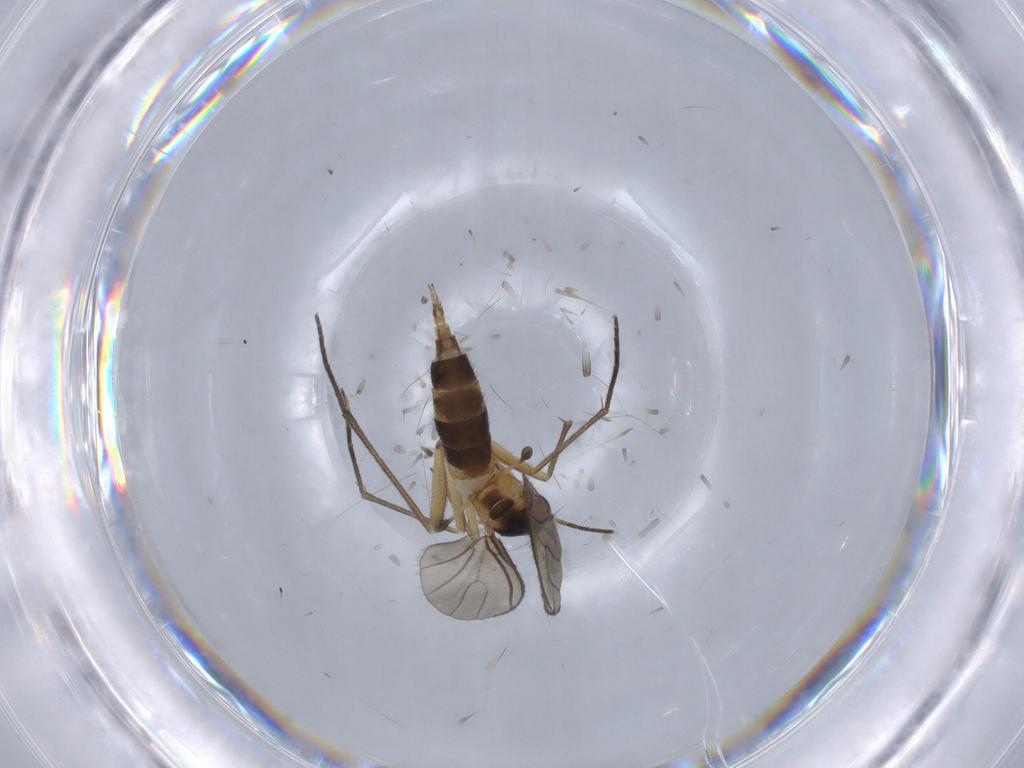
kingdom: Animalia
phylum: Arthropoda
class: Insecta
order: Diptera
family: Sciaridae
